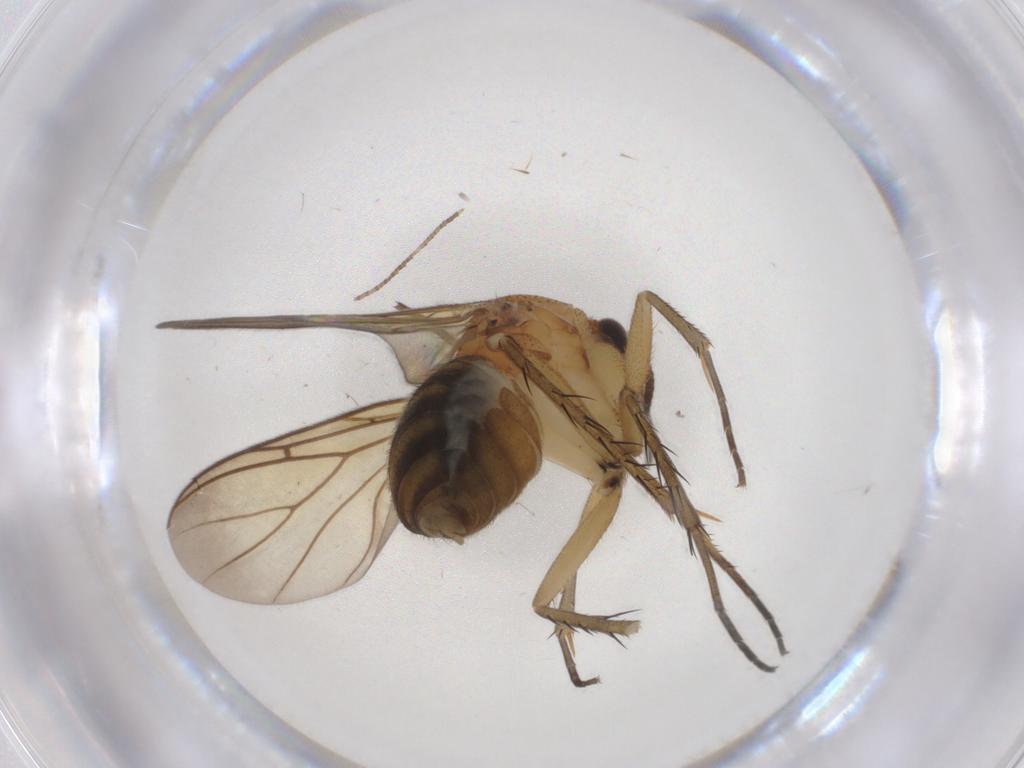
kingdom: Animalia
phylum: Arthropoda
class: Insecta
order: Diptera
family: Mycetophilidae
